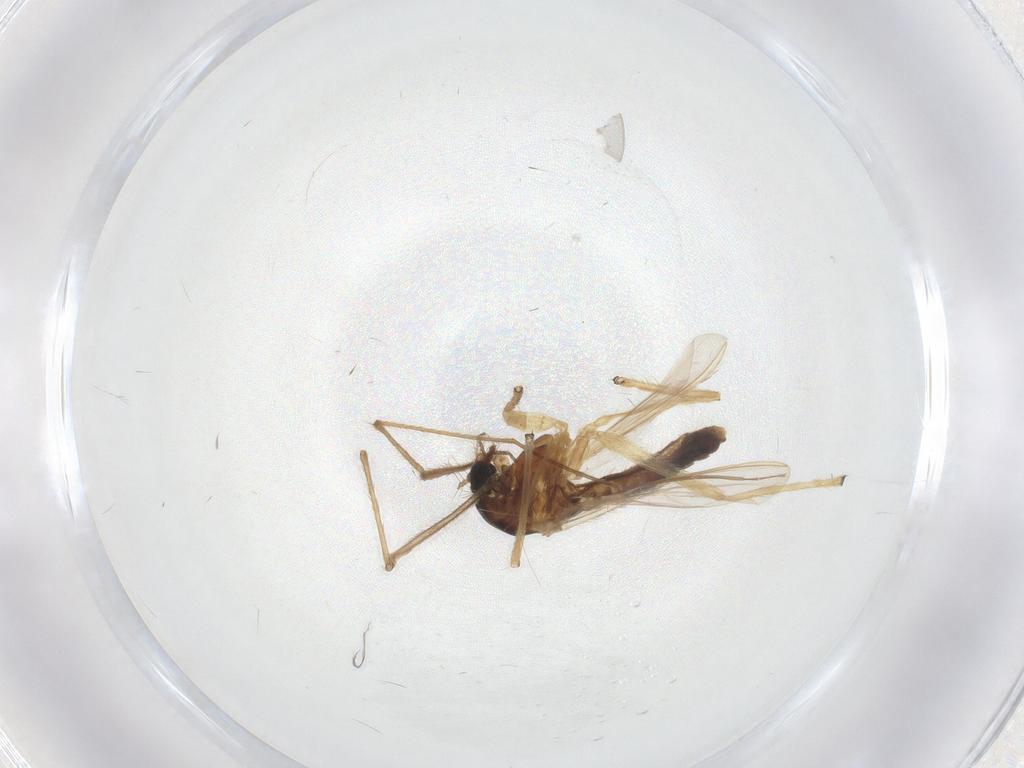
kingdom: Animalia
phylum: Arthropoda
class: Insecta
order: Diptera
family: Chironomidae
